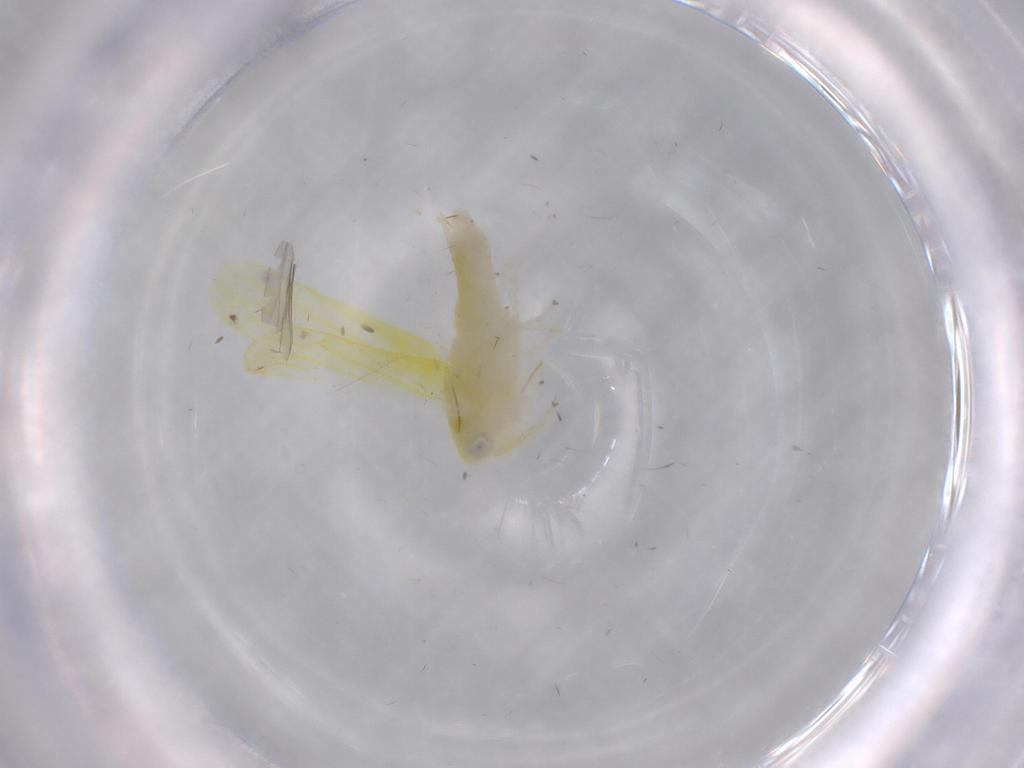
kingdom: Animalia
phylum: Arthropoda
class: Insecta
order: Hemiptera
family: Cicadellidae
